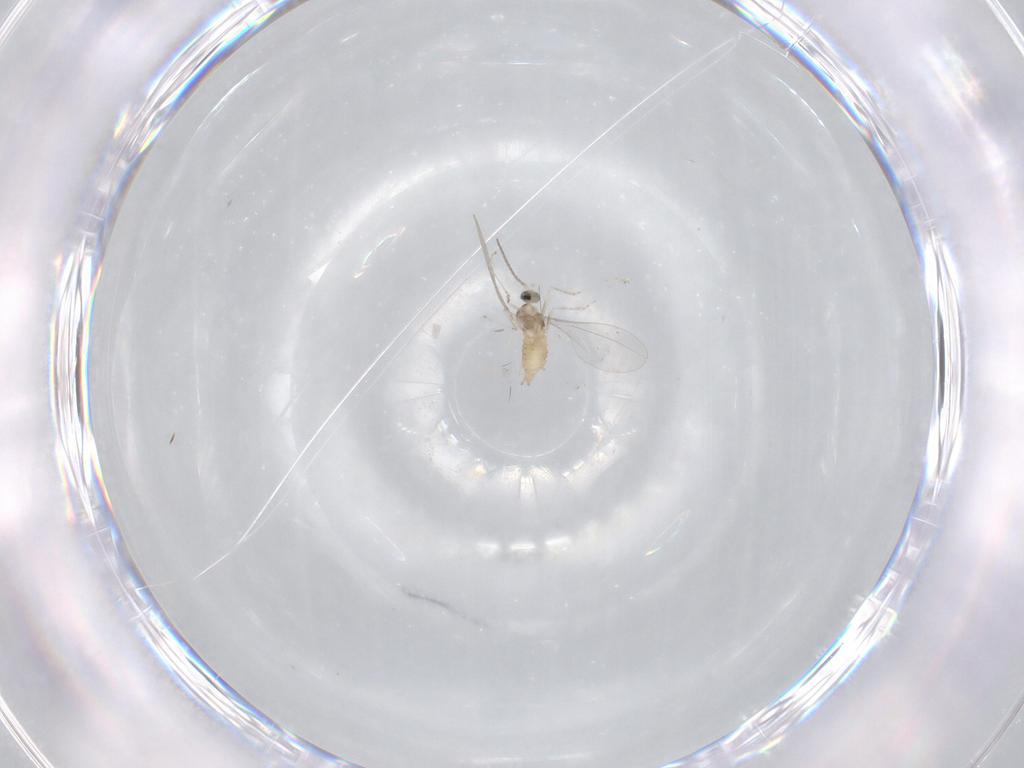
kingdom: Animalia
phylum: Arthropoda
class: Insecta
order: Diptera
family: Cecidomyiidae
